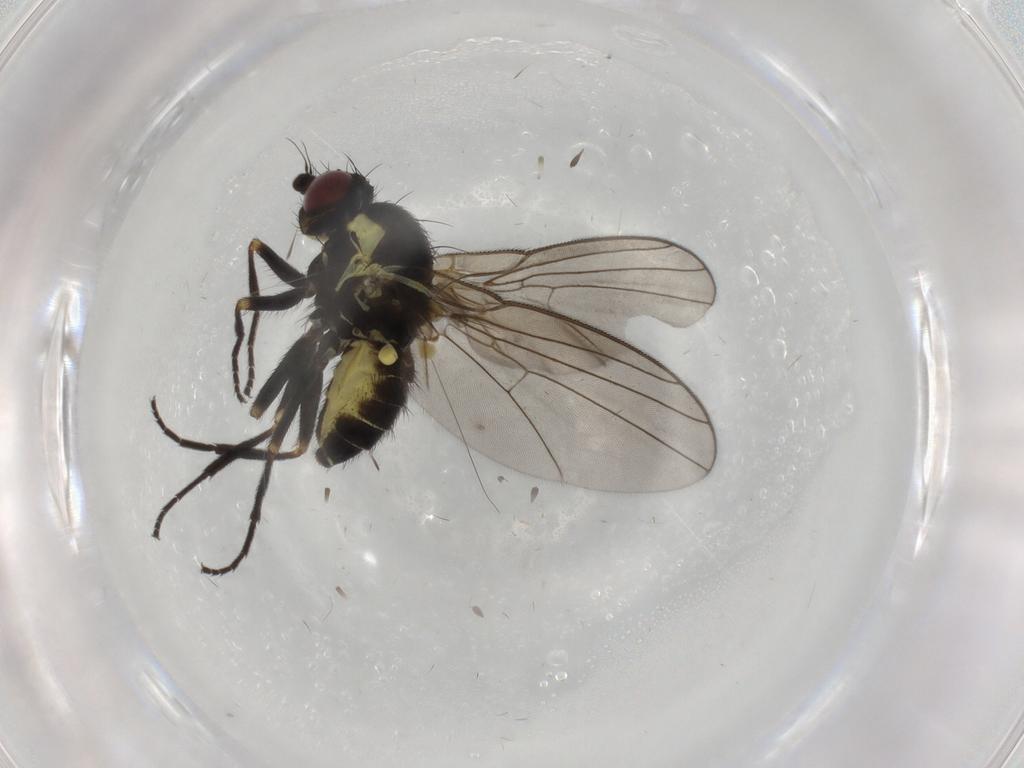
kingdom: Animalia
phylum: Arthropoda
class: Insecta
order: Diptera
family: Agromyzidae
